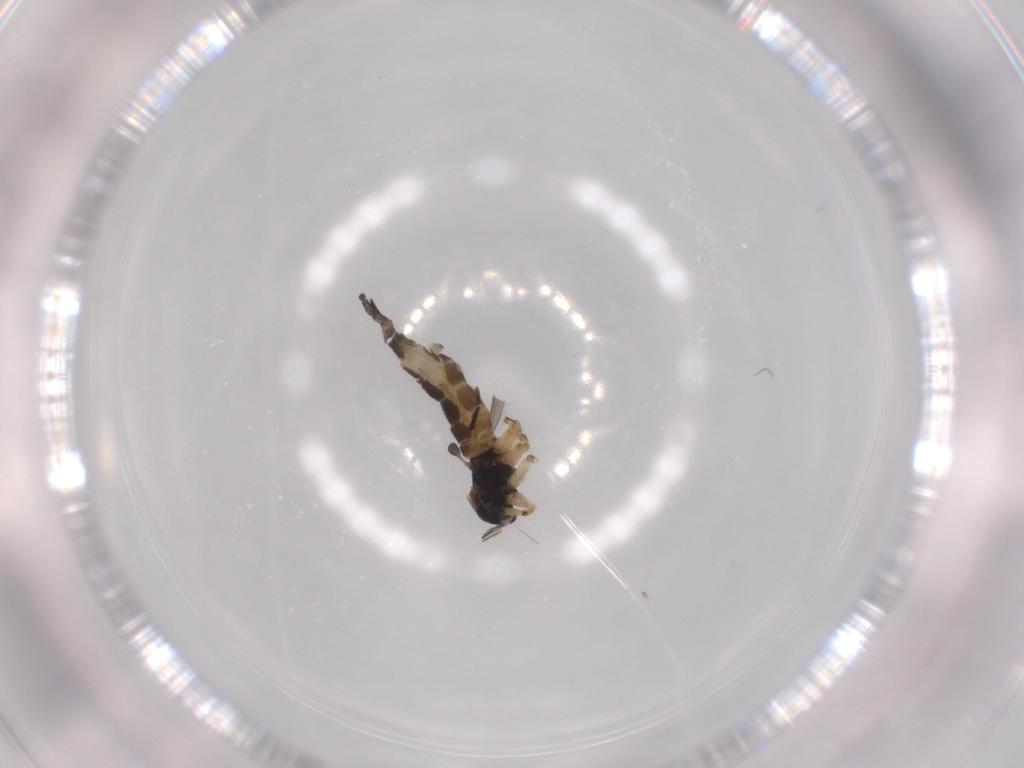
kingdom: Animalia
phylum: Arthropoda
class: Insecta
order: Diptera
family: Sciaridae
